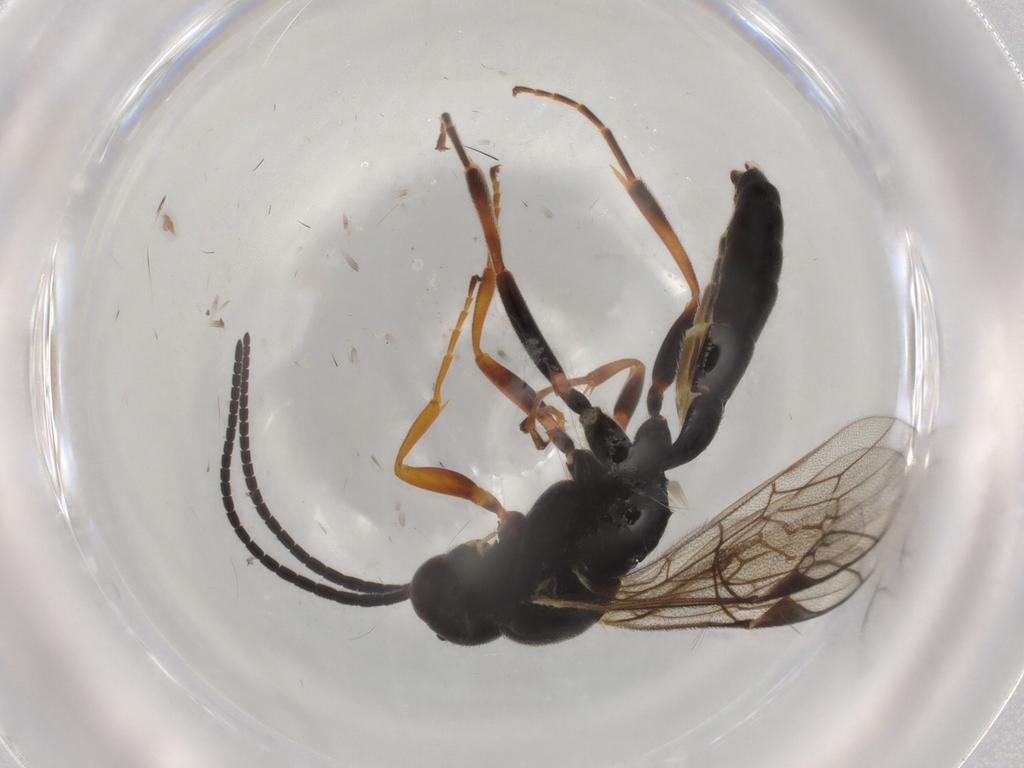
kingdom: Animalia
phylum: Arthropoda
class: Insecta
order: Hymenoptera
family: Ichneumonidae
